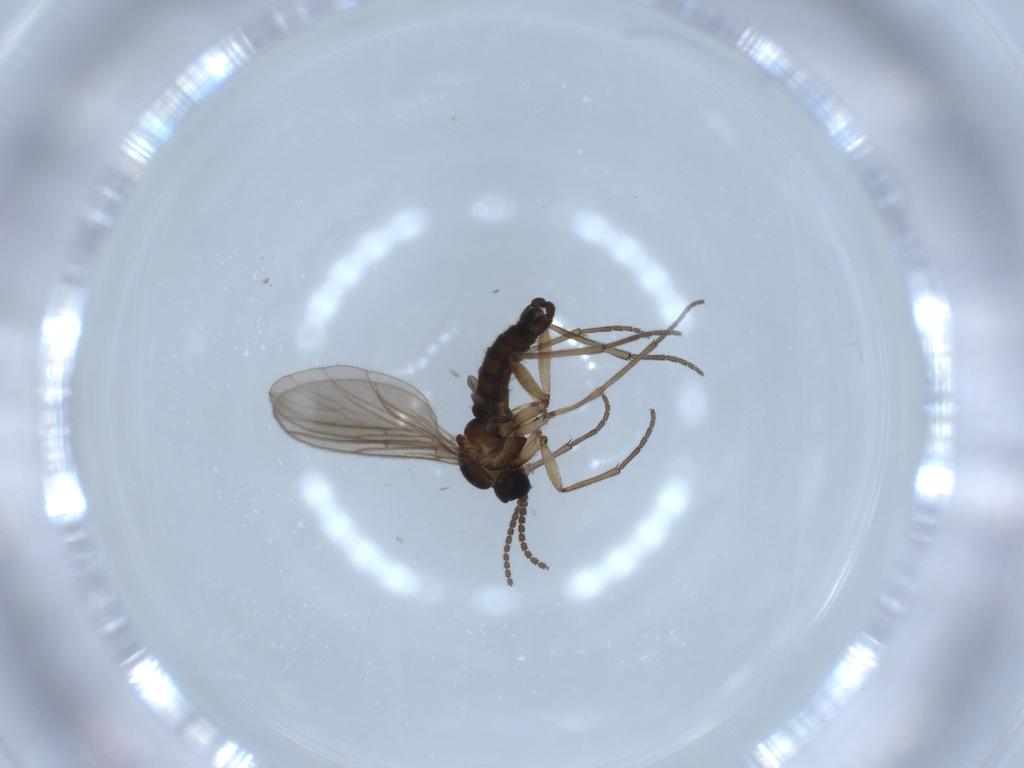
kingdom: Animalia
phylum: Arthropoda
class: Insecta
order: Diptera
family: Sciaridae
